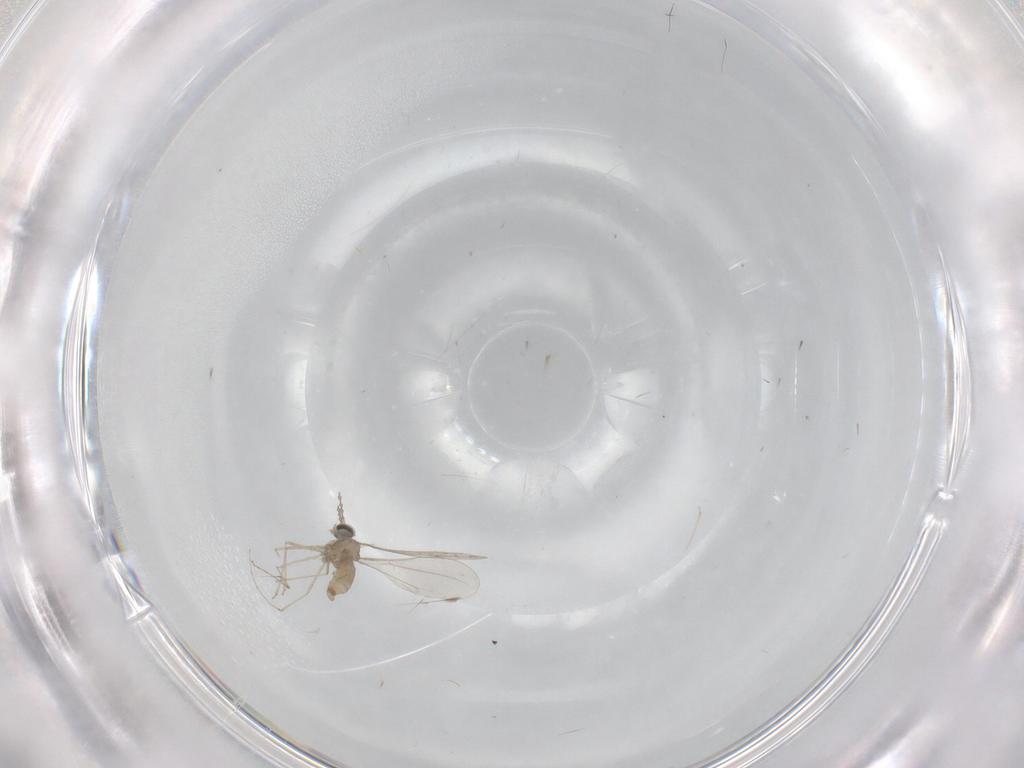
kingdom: Animalia
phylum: Arthropoda
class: Insecta
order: Diptera
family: Cecidomyiidae
